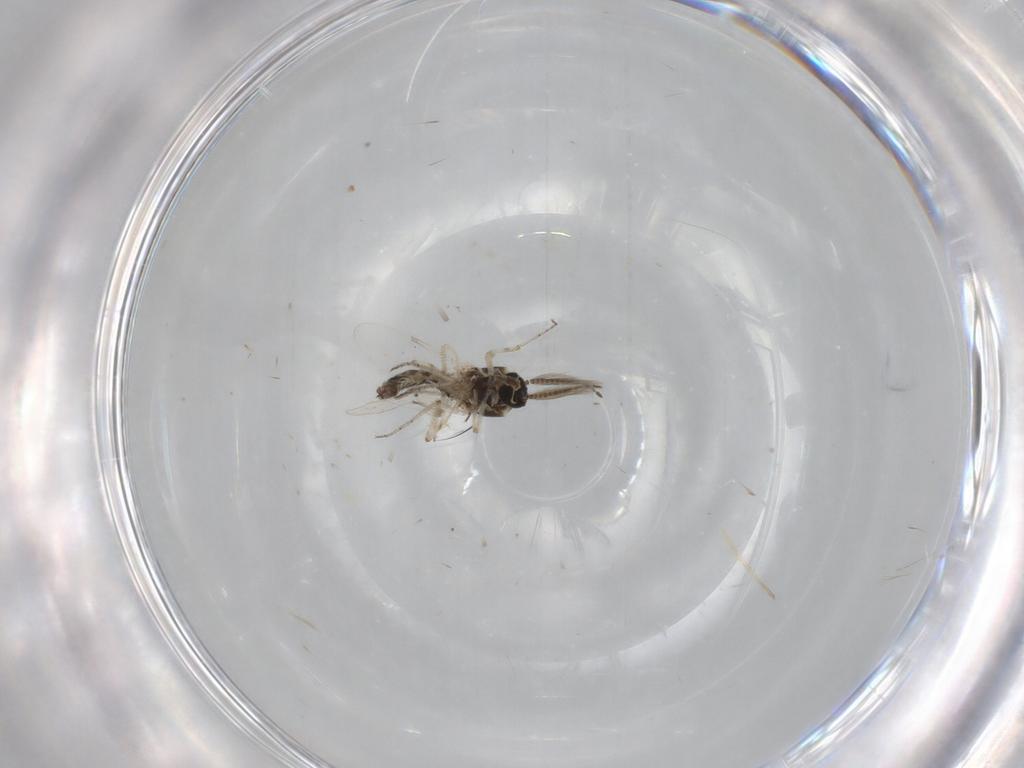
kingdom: Animalia
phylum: Arthropoda
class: Insecta
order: Diptera
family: Ceratopogonidae
